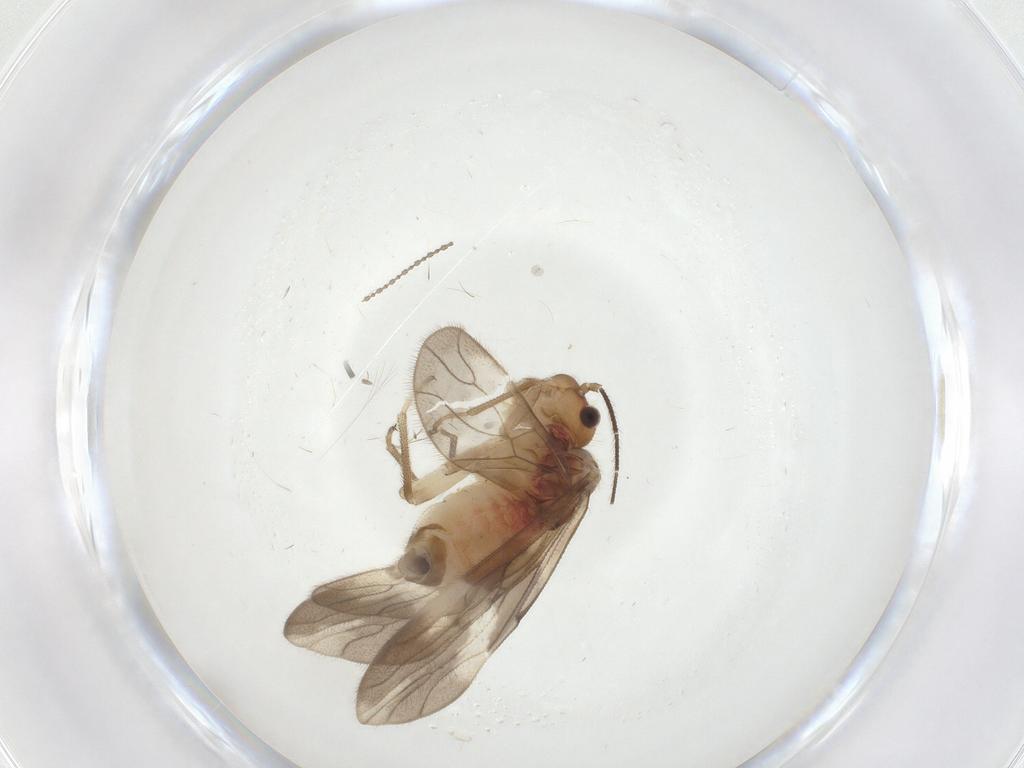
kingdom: Animalia
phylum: Arthropoda
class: Insecta
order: Psocodea
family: Amphipsocidae
